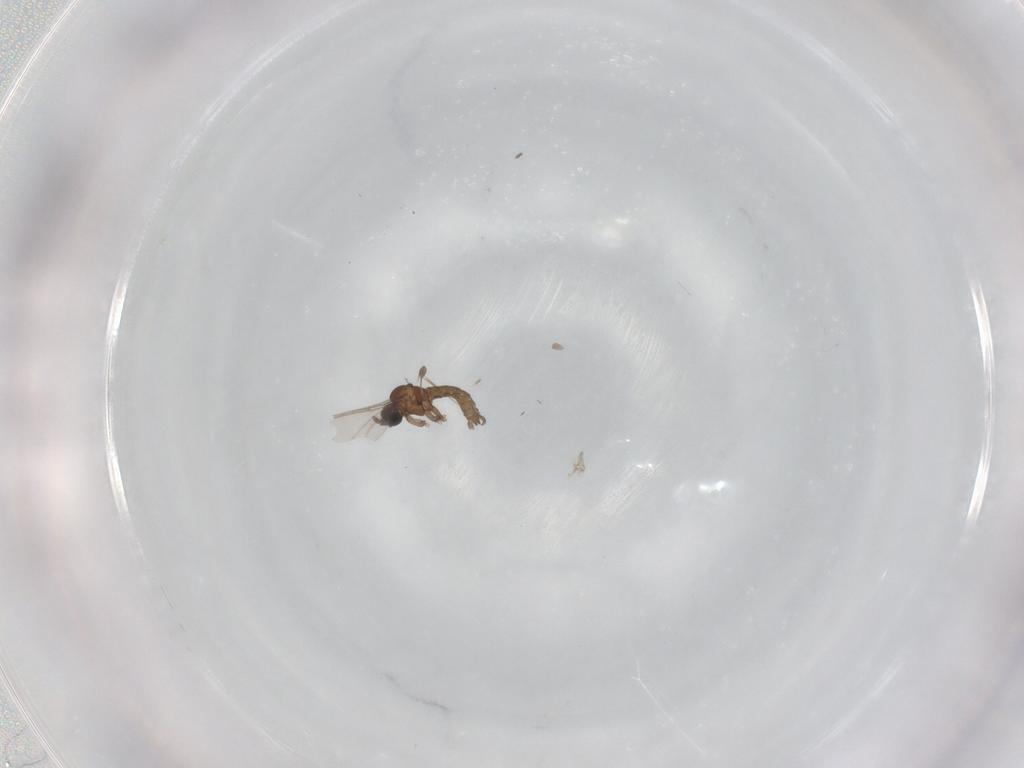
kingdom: Animalia
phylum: Arthropoda
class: Insecta
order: Diptera
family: Sciaridae
